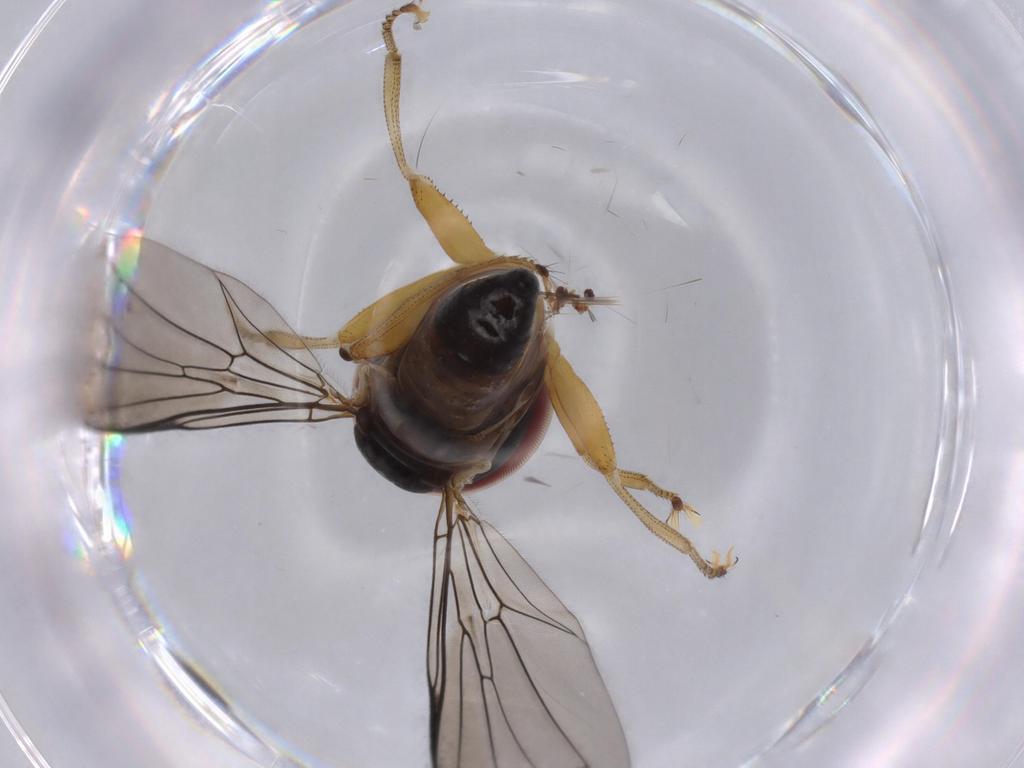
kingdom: Animalia
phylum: Arthropoda
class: Insecta
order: Diptera
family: Cecidomyiidae
